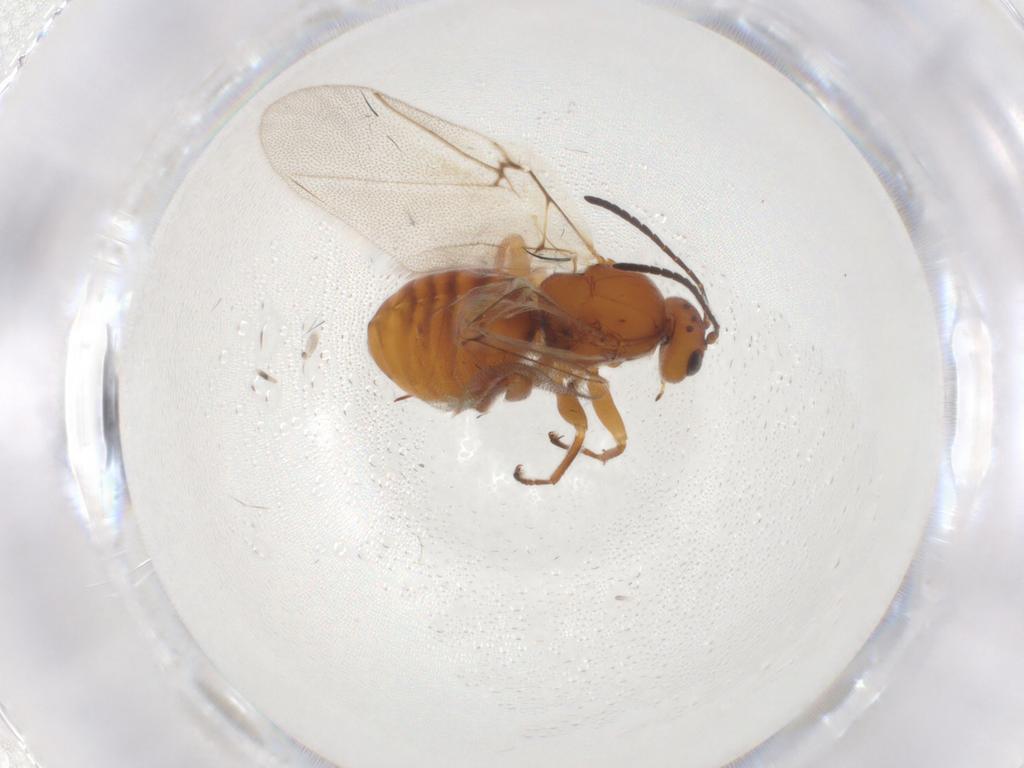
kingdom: Animalia
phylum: Arthropoda
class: Insecta
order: Hymenoptera
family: Cynipidae
